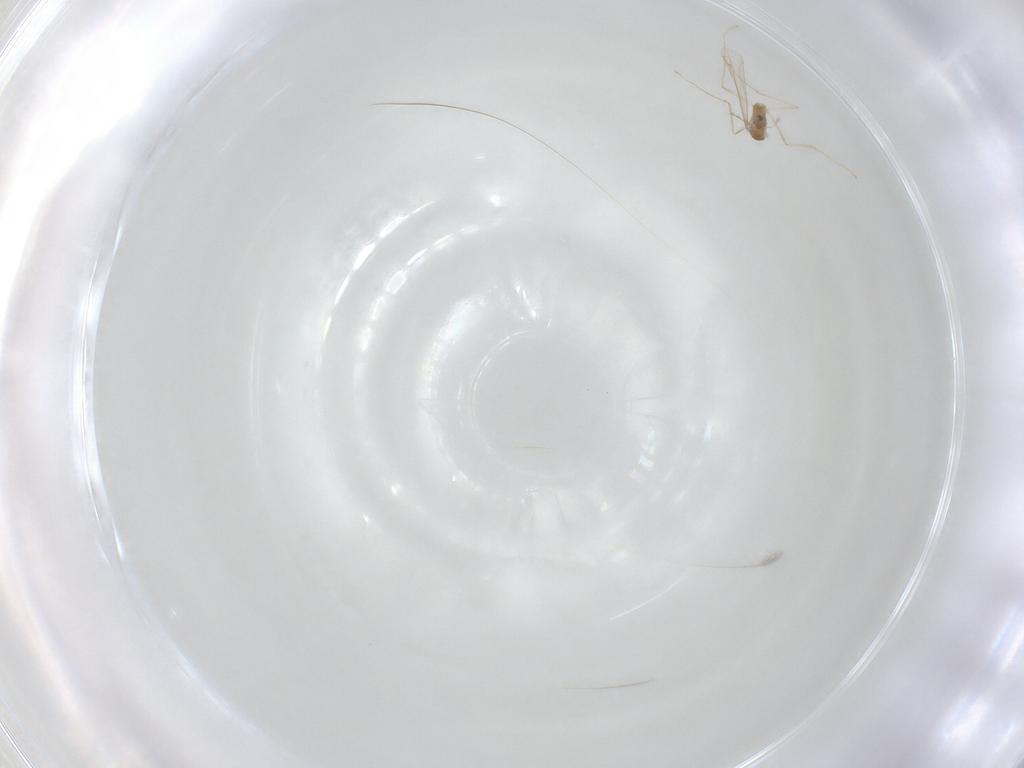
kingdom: Animalia
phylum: Arthropoda
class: Insecta
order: Diptera
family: Cecidomyiidae
